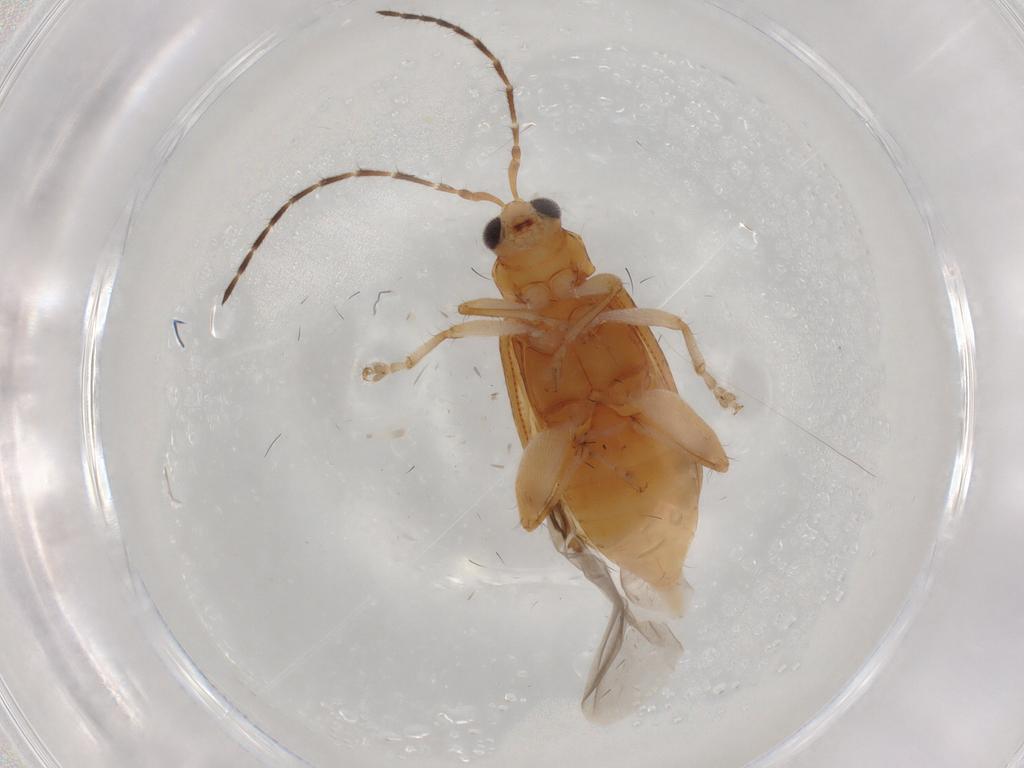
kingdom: Animalia
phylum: Arthropoda
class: Insecta
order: Coleoptera
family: Chrysomelidae
